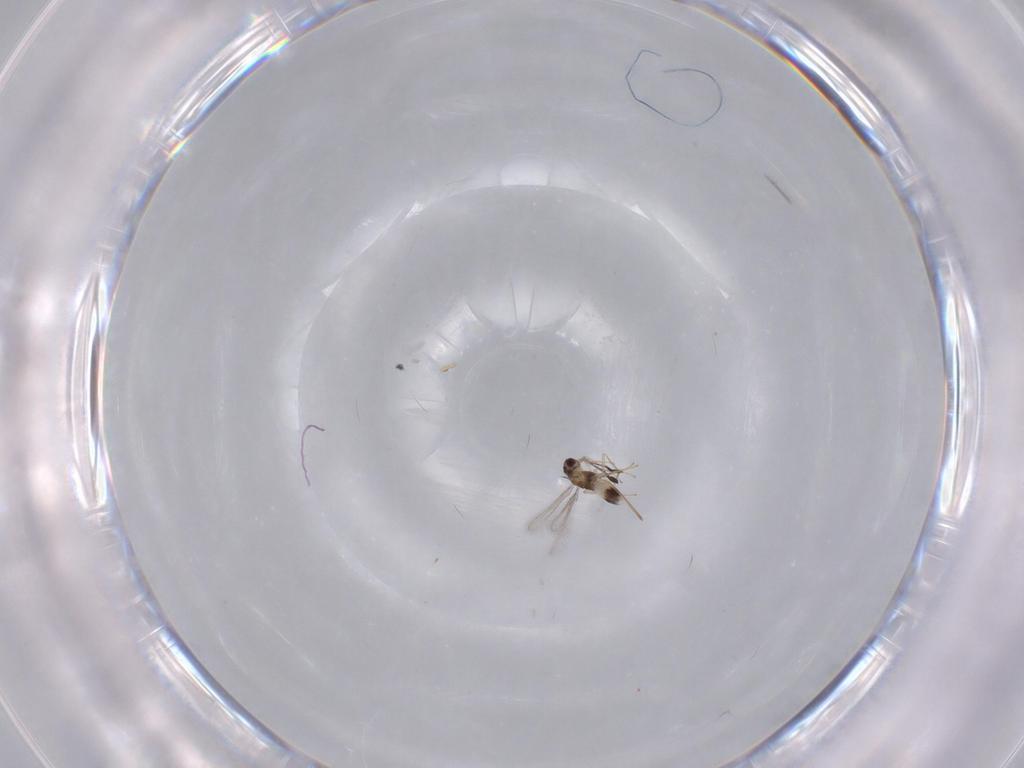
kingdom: Animalia
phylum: Arthropoda
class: Insecta
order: Hymenoptera
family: Mymaridae
